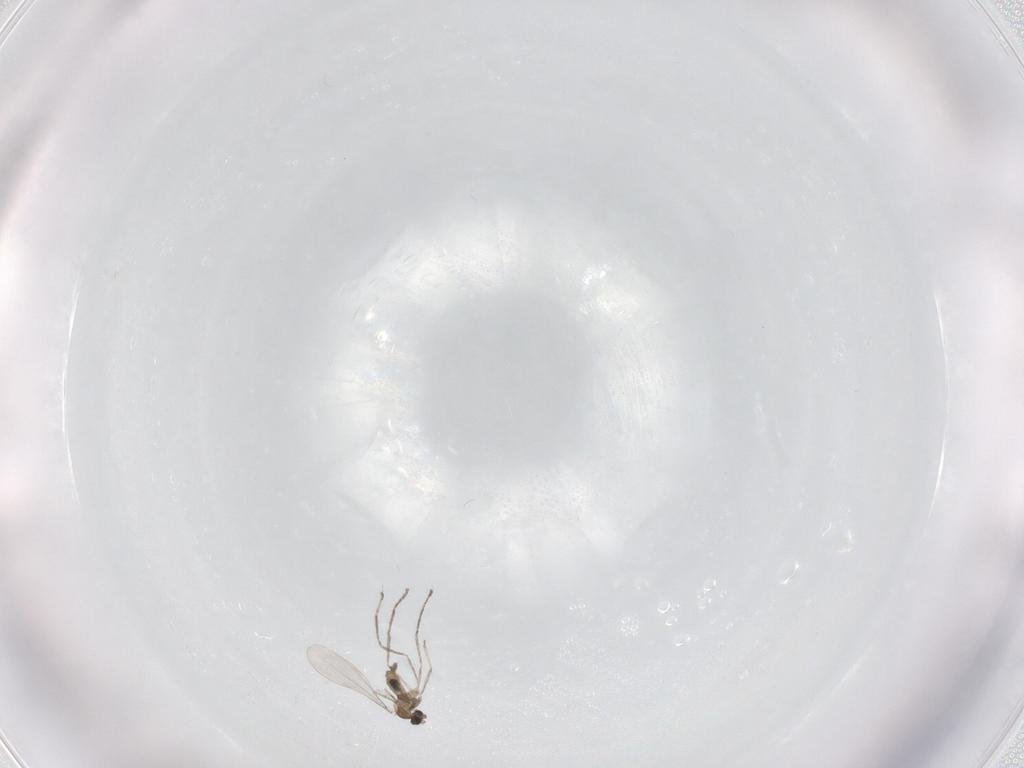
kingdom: Animalia
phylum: Arthropoda
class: Insecta
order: Diptera
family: Cecidomyiidae
